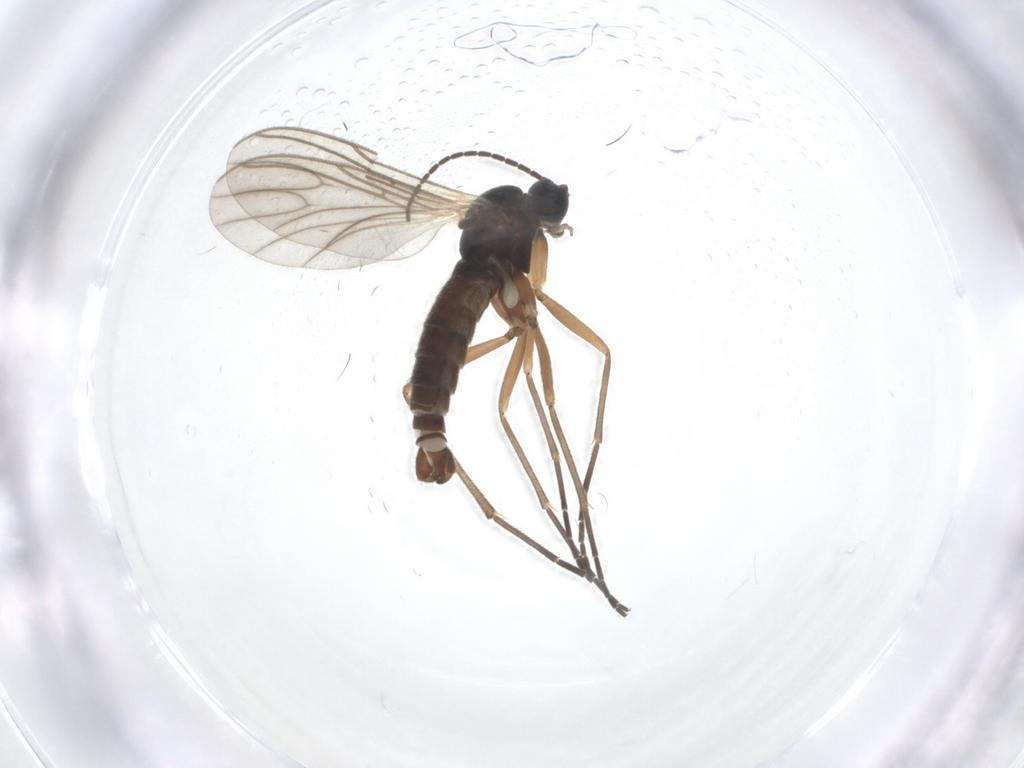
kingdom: Animalia
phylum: Arthropoda
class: Insecta
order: Diptera
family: Sciaridae
